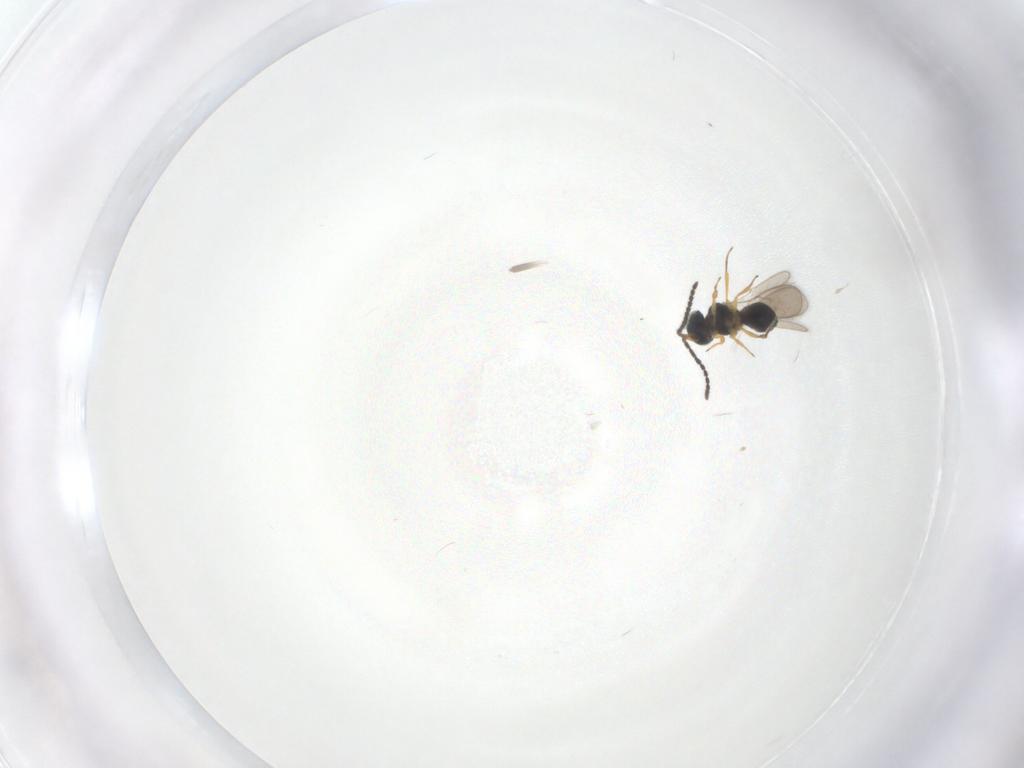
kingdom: Animalia
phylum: Arthropoda
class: Insecta
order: Hymenoptera
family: Scelionidae
